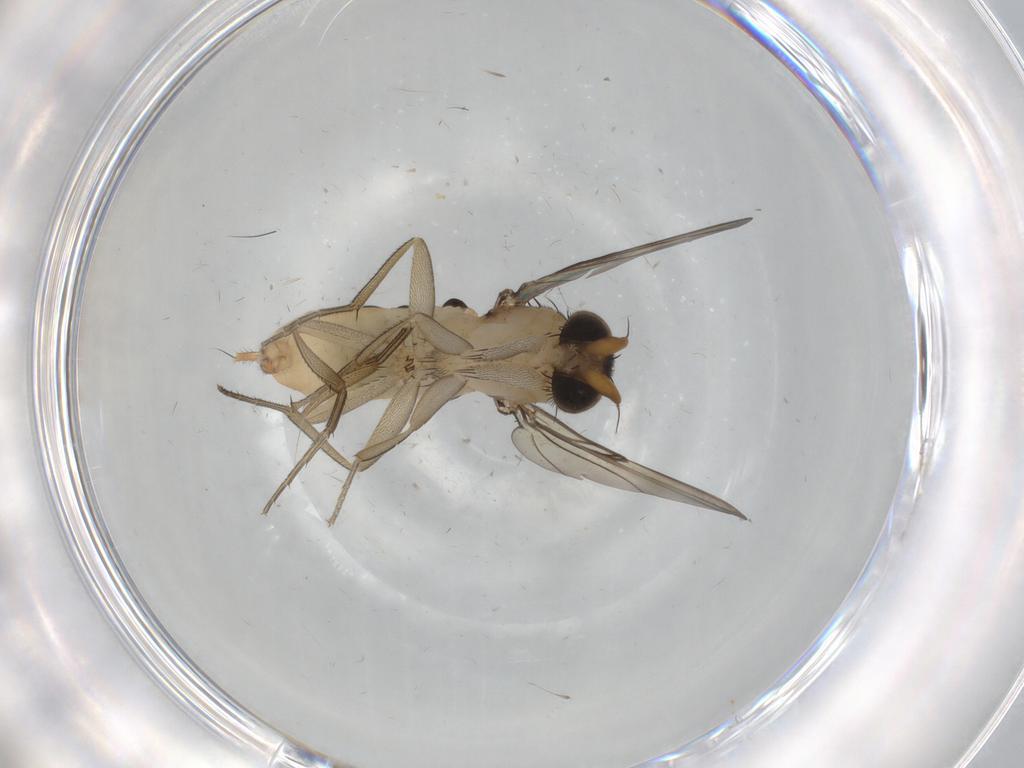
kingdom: Animalia
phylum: Arthropoda
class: Insecta
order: Diptera
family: Phoridae
